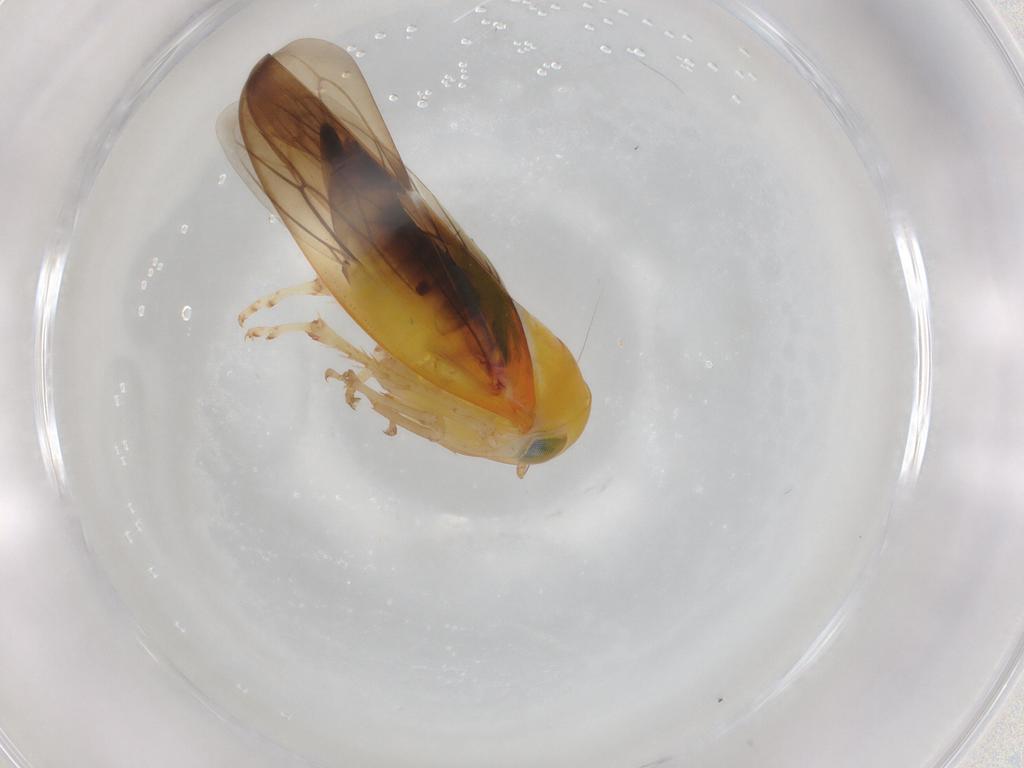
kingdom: Animalia
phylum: Arthropoda
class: Insecta
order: Hemiptera
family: Cicadellidae
